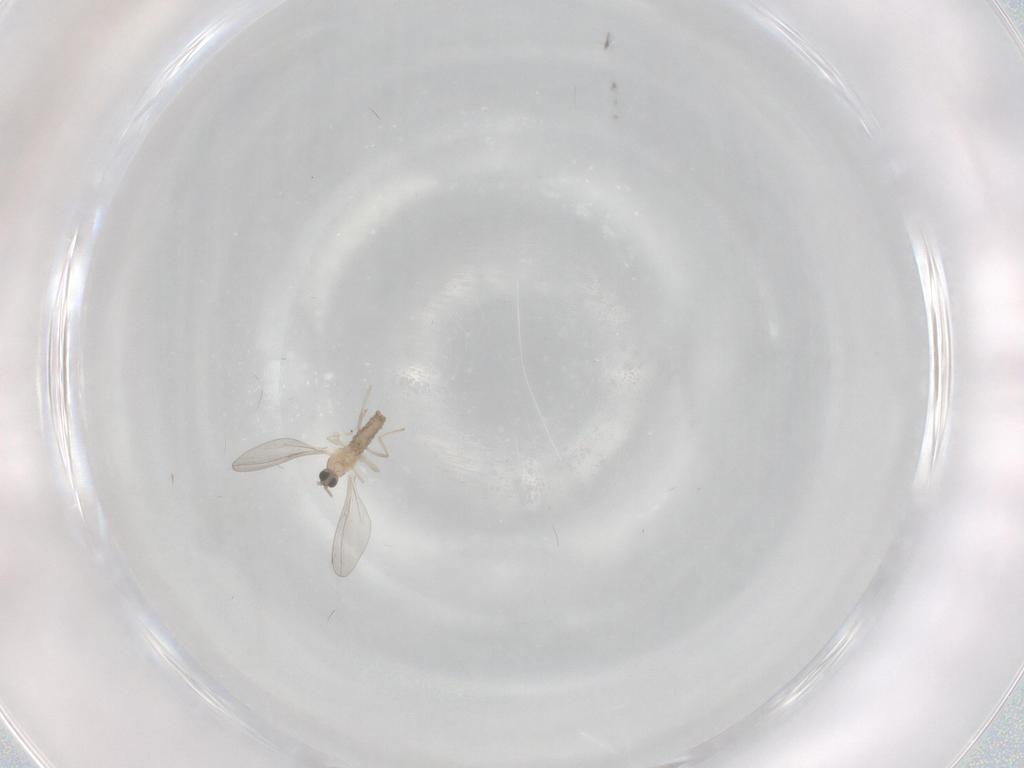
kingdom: Animalia
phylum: Arthropoda
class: Insecta
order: Diptera
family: Cecidomyiidae
